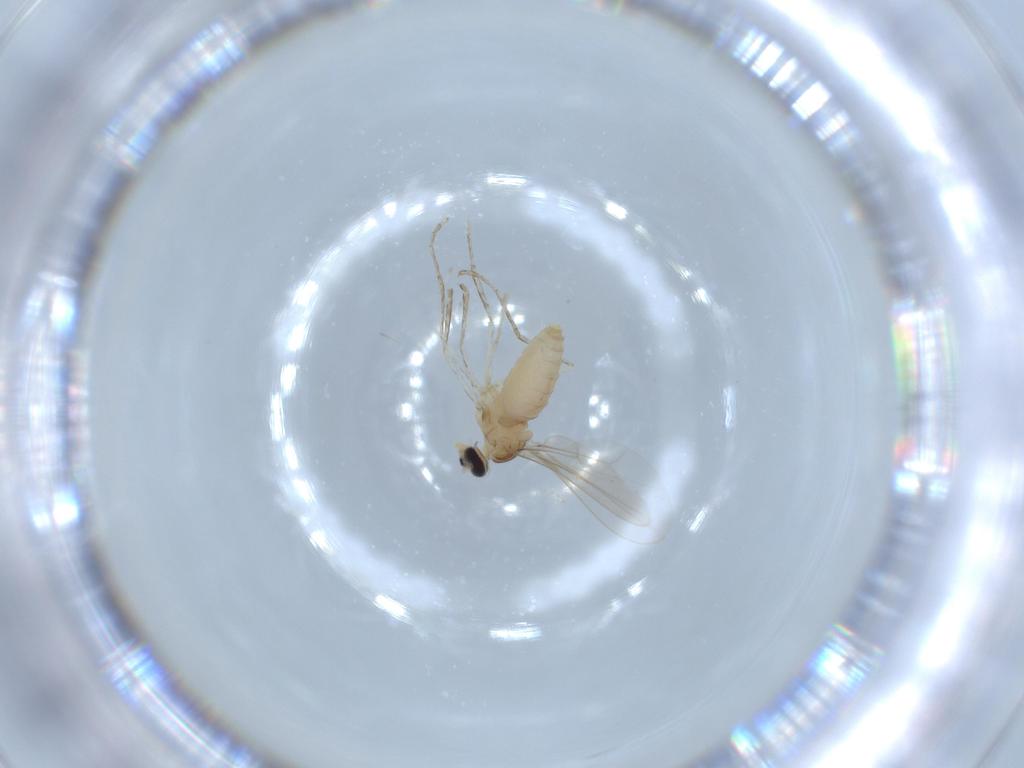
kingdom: Animalia
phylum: Arthropoda
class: Insecta
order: Diptera
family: Cecidomyiidae
